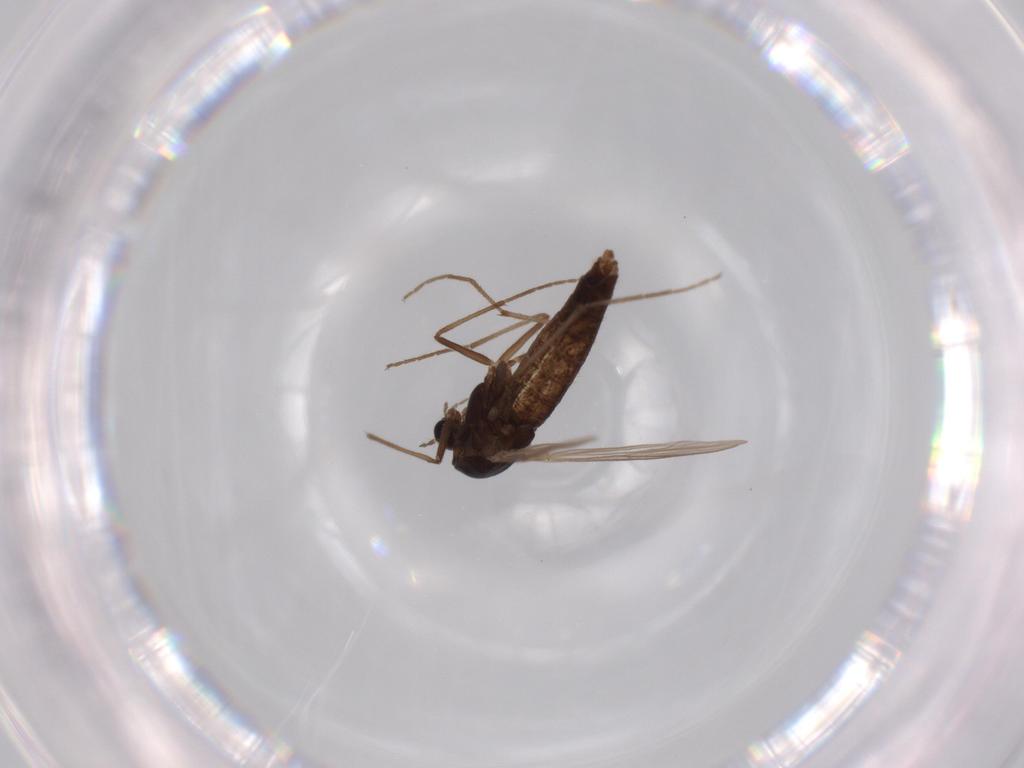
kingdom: Animalia
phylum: Arthropoda
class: Insecta
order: Diptera
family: Chironomidae
